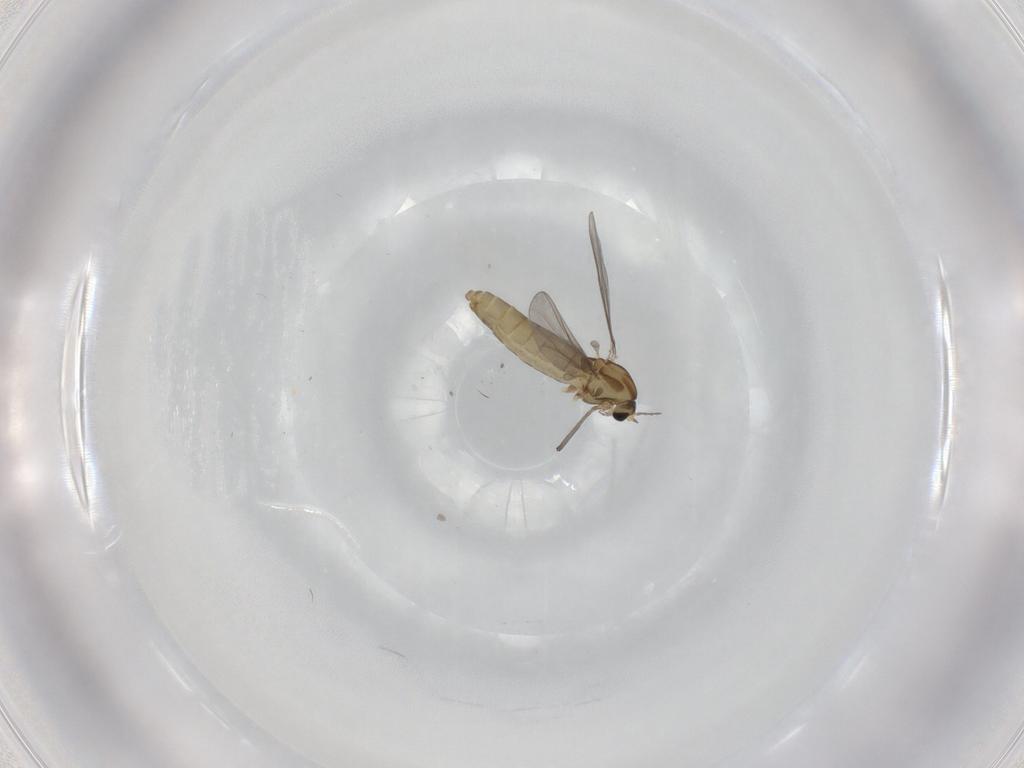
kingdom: Animalia
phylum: Arthropoda
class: Insecta
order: Diptera
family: Chironomidae
